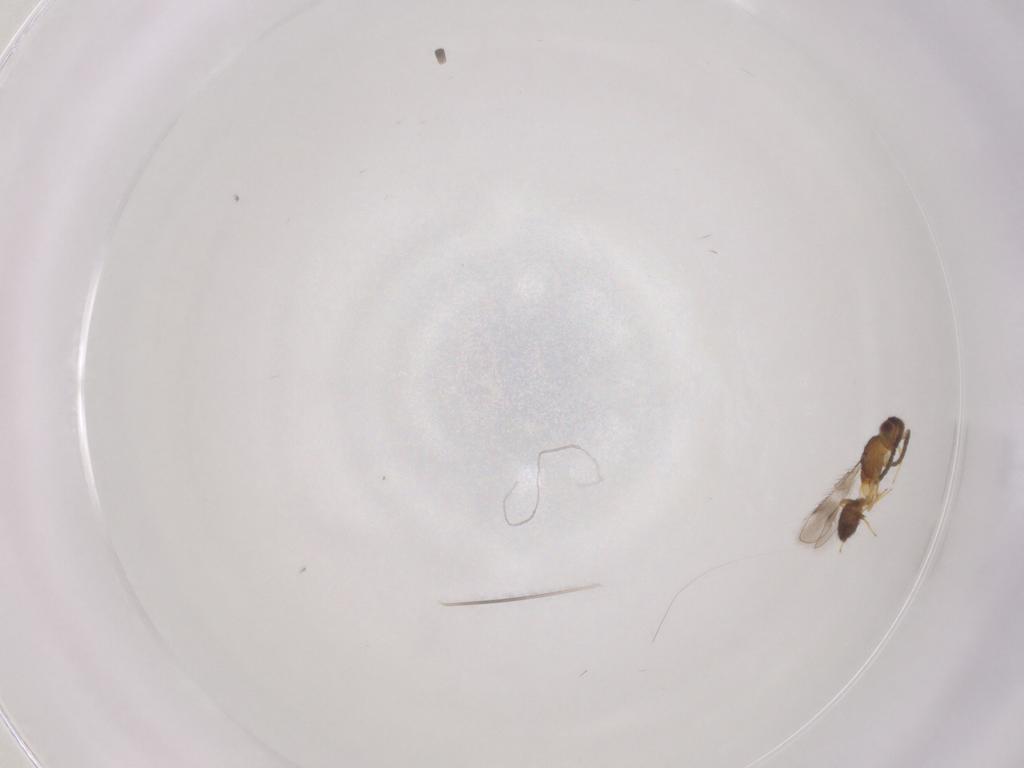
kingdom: Animalia
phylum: Arthropoda
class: Insecta
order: Hymenoptera
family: Pteromalidae
